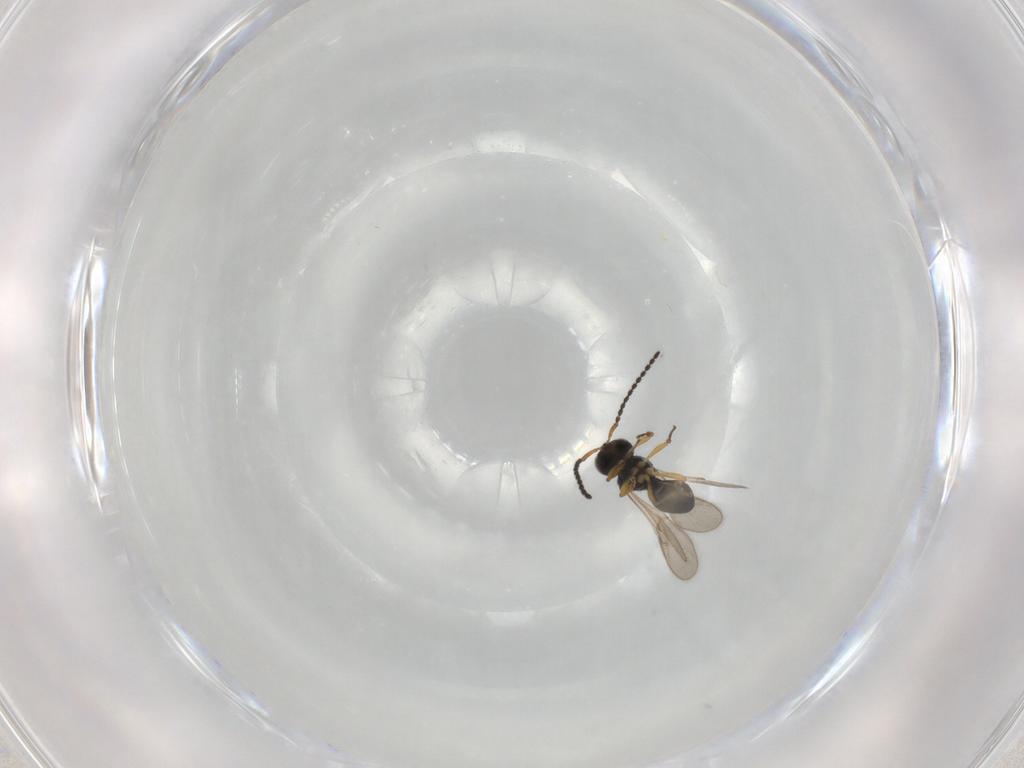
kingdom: Animalia
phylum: Arthropoda
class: Insecta
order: Hymenoptera
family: Scelionidae
